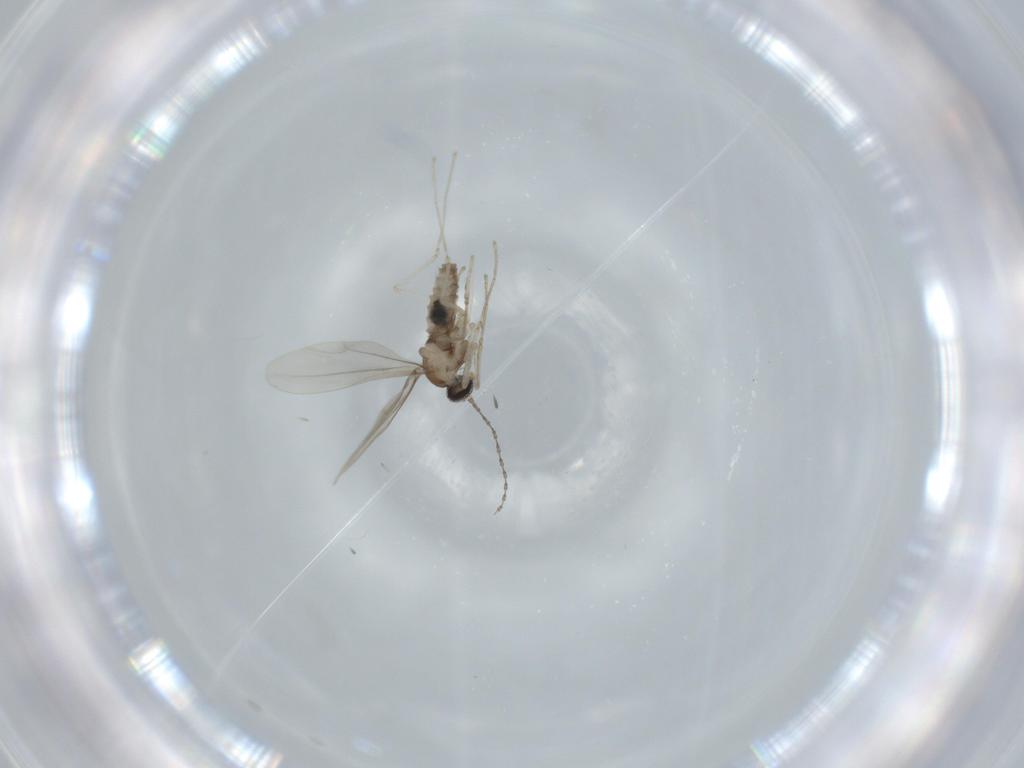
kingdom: Animalia
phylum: Arthropoda
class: Insecta
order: Diptera
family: Cecidomyiidae
